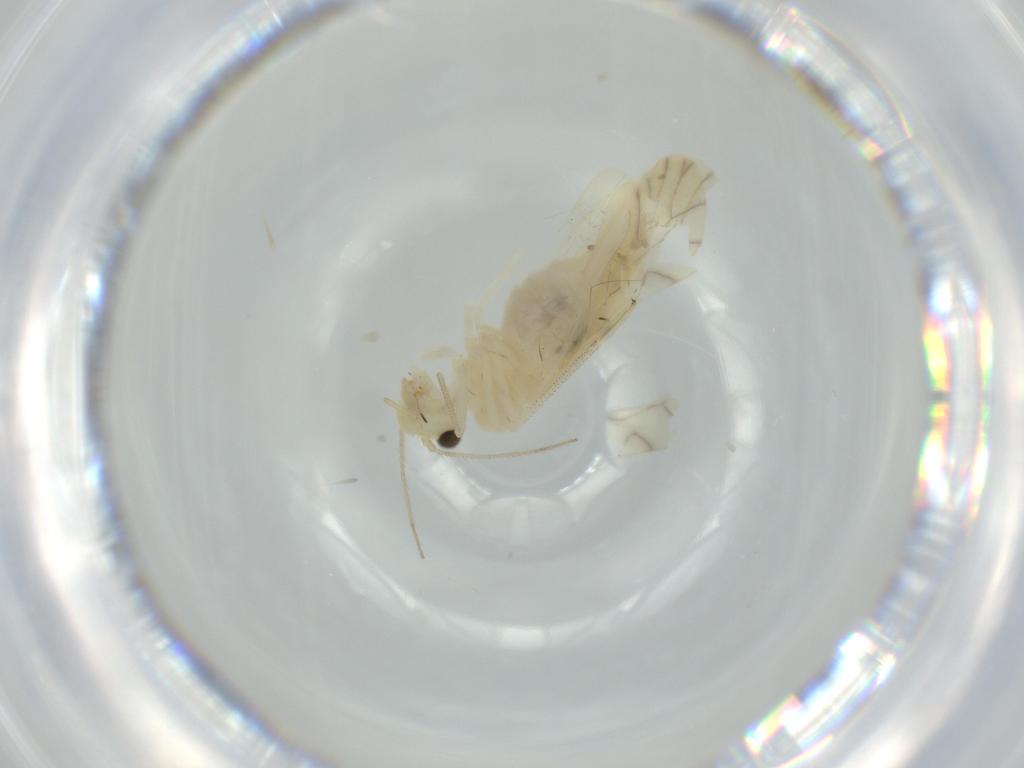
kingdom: Animalia
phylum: Arthropoda
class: Insecta
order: Psocodea
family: Caeciliusidae
